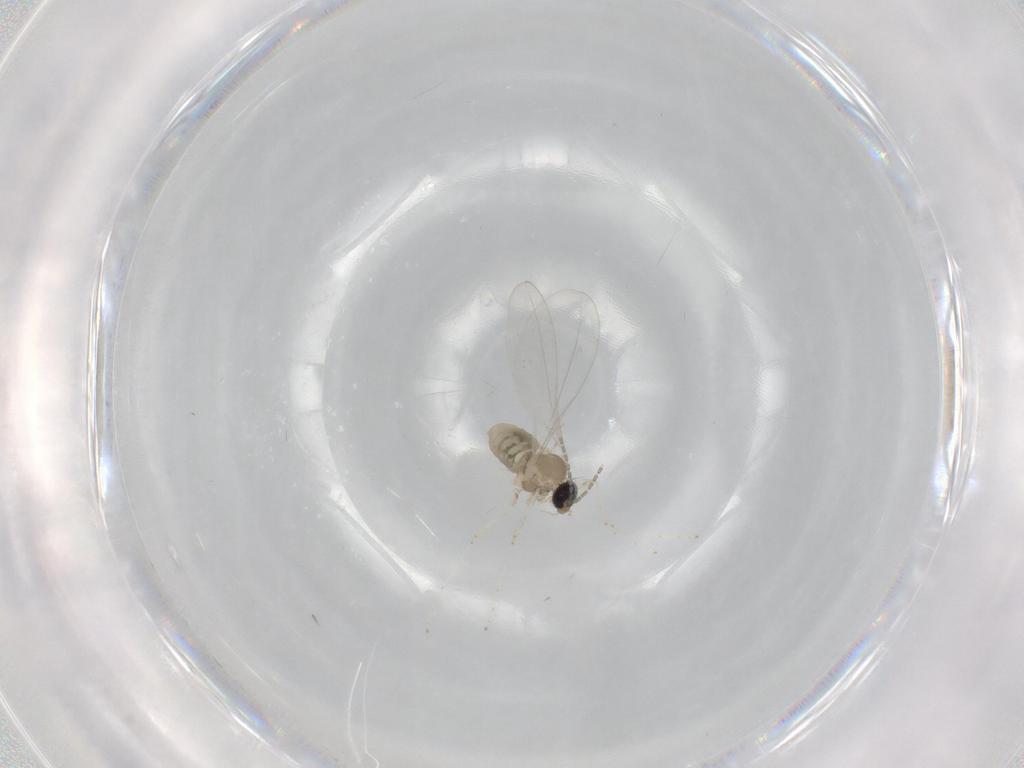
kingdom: Animalia
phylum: Arthropoda
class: Insecta
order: Diptera
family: Cecidomyiidae
